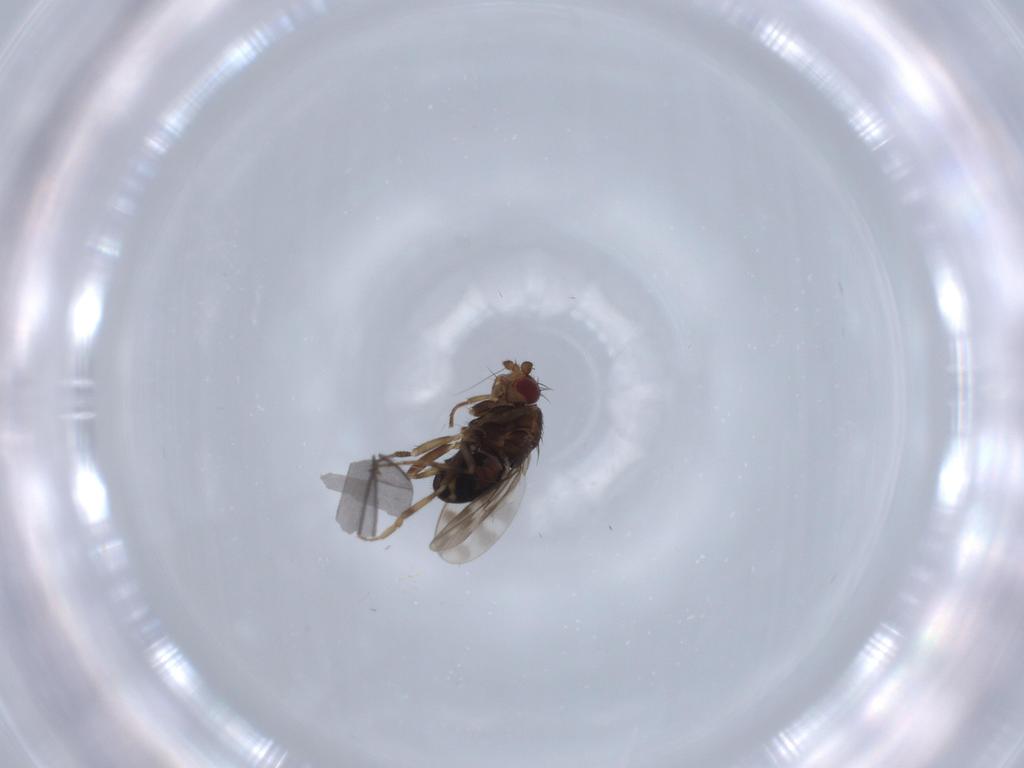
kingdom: Animalia
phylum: Arthropoda
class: Insecta
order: Diptera
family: Sphaeroceridae
